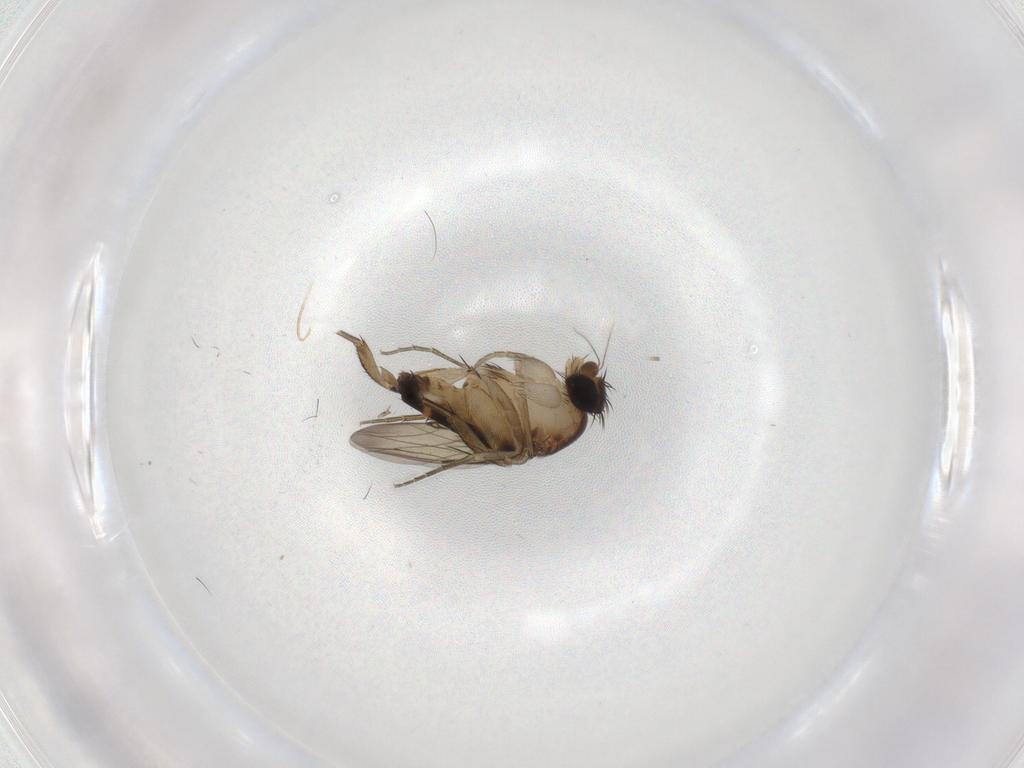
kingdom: Animalia
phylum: Arthropoda
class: Insecta
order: Diptera
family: Cecidomyiidae
